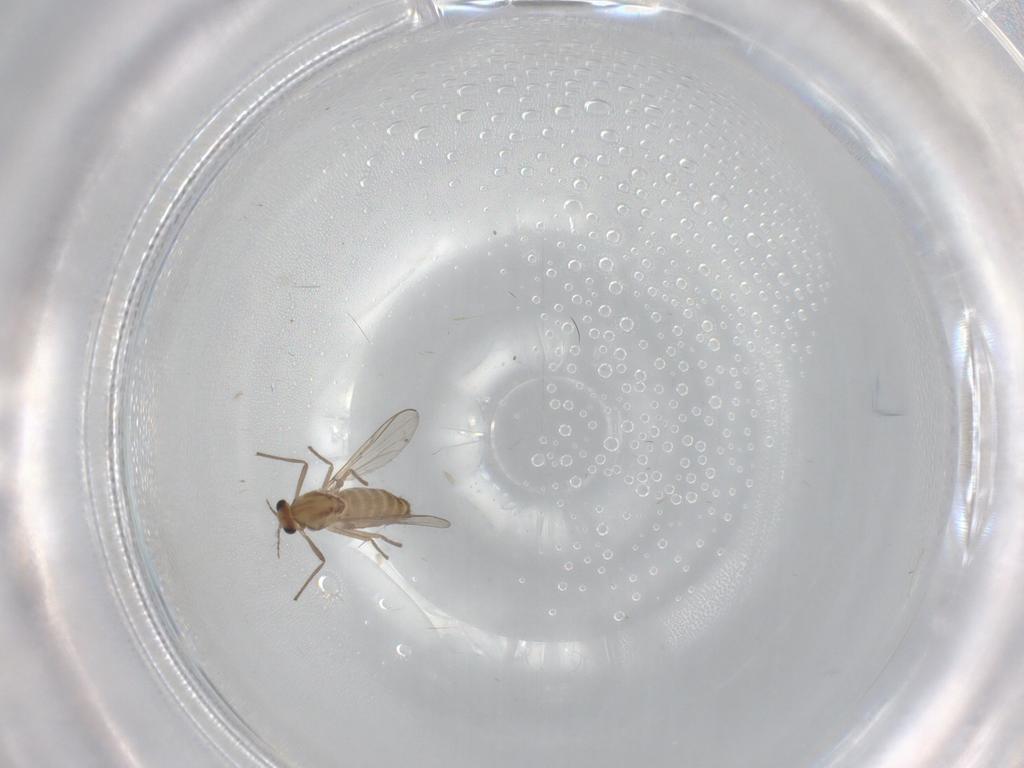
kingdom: Animalia
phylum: Arthropoda
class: Insecta
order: Diptera
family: Chironomidae
